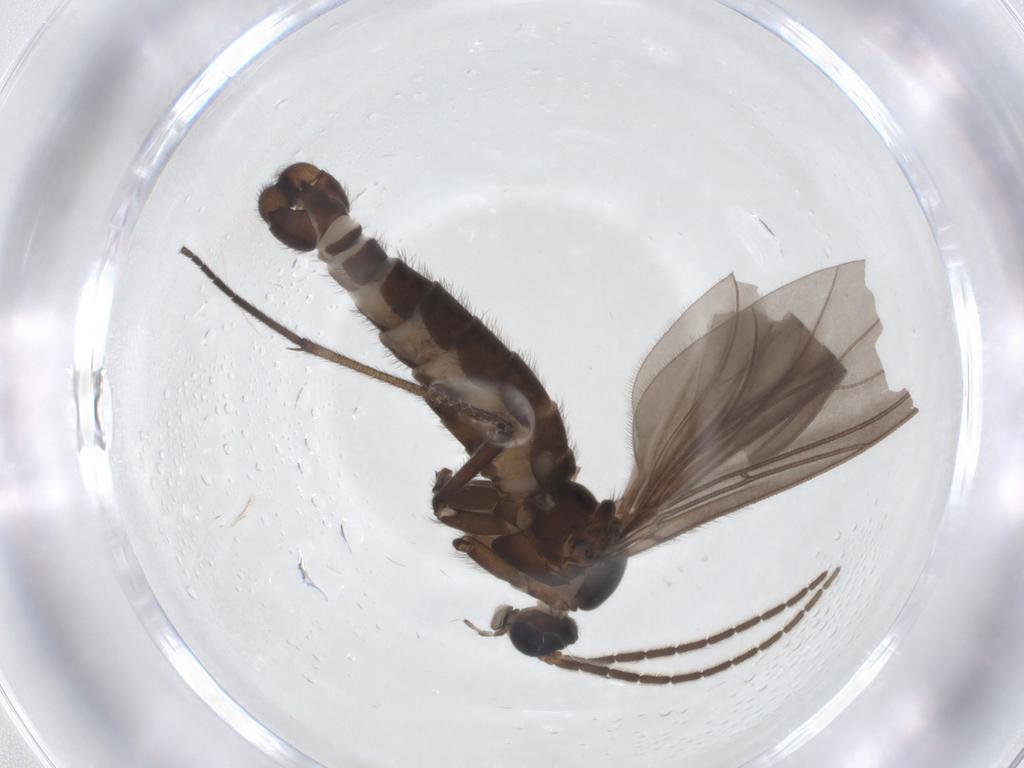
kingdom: Animalia
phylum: Arthropoda
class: Insecta
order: Diptera
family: Sciaridae
